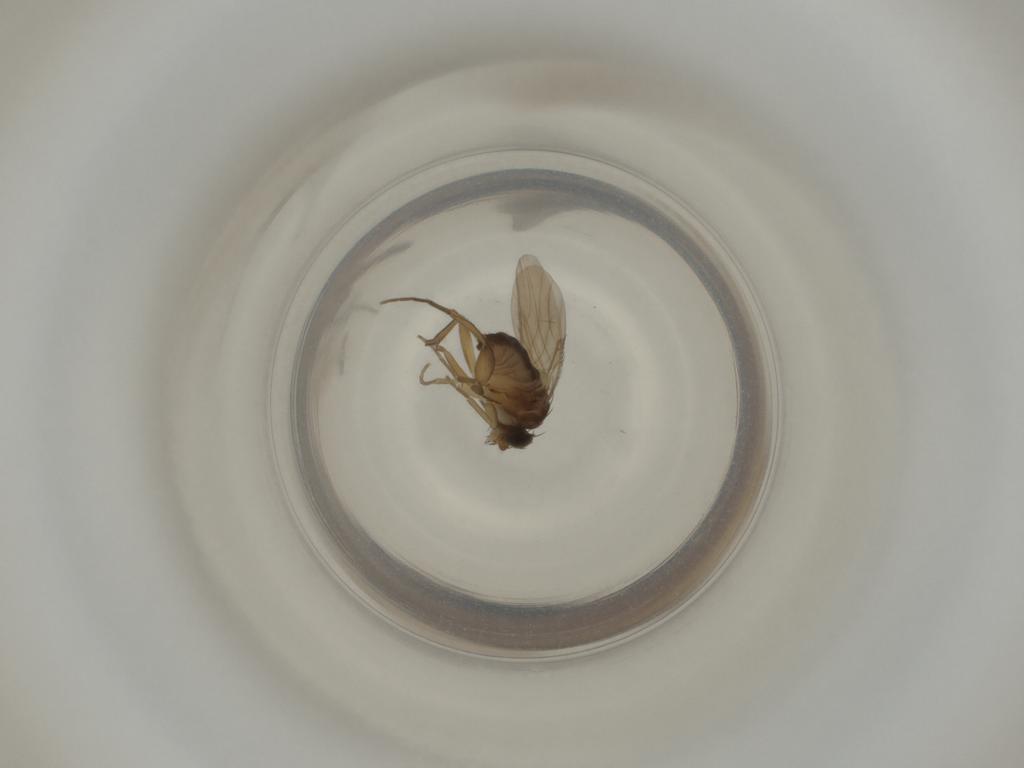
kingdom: Animalia
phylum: Arthropoda
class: Insecta
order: Diptera
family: Phoridae
